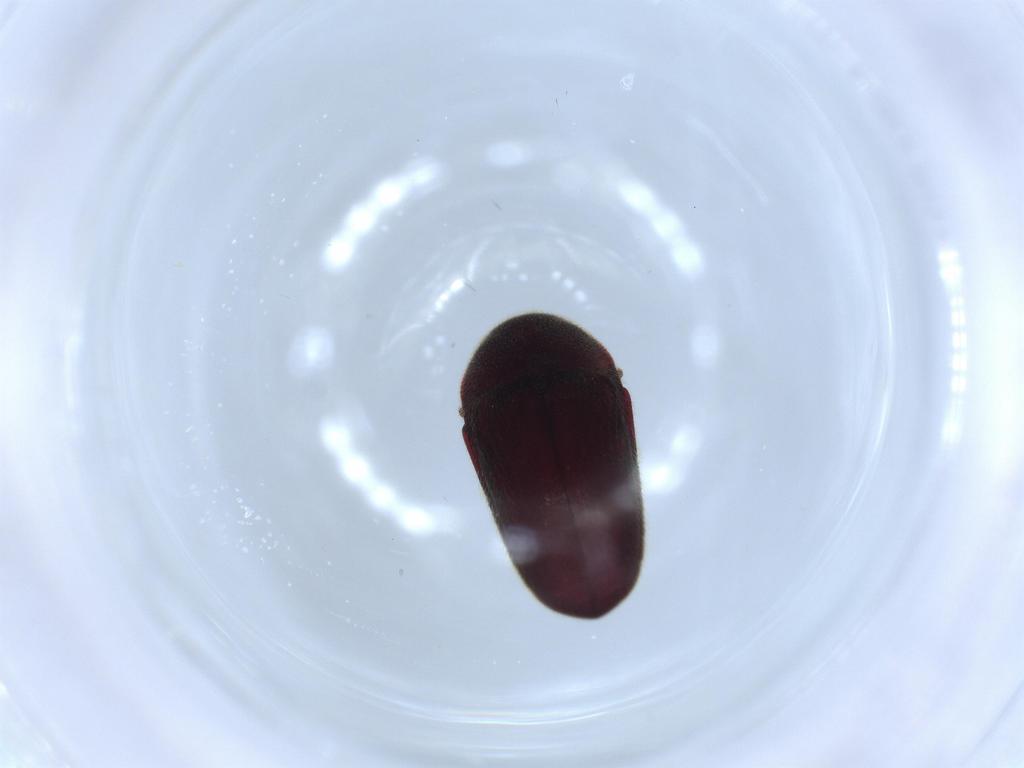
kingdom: Animalia
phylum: Arthropoda
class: Insecta
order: Coleoptera
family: Throscidae
